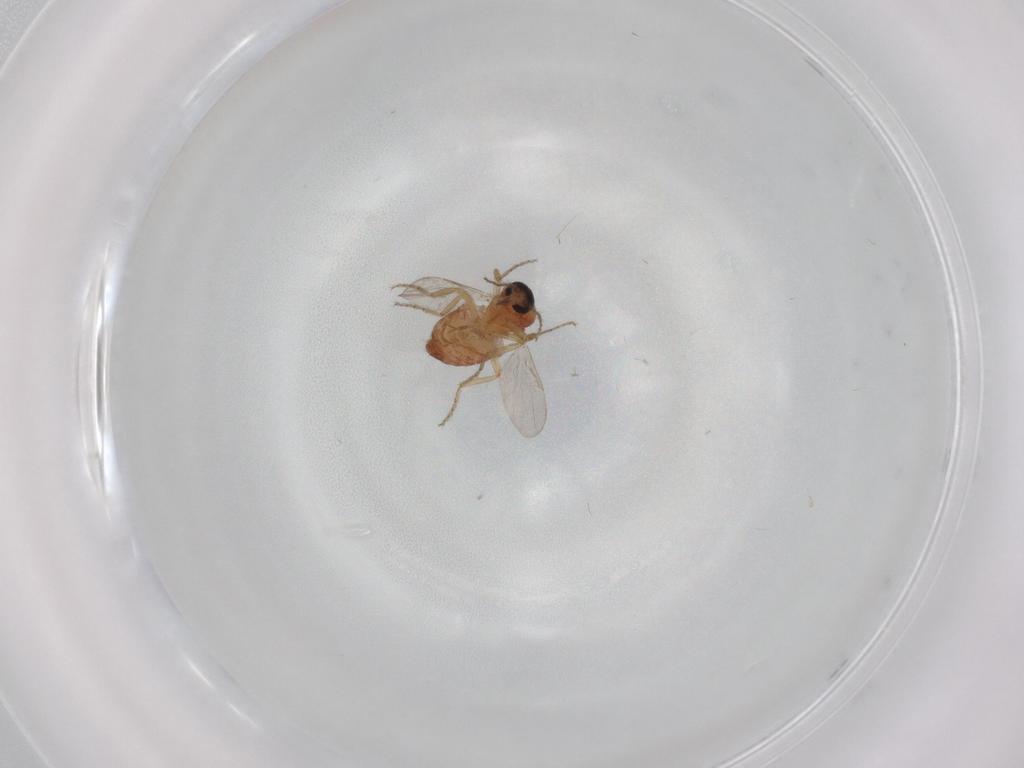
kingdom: Animalia
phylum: Arthropoda
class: Insecta
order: Diptera
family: Ceratopogonidae
